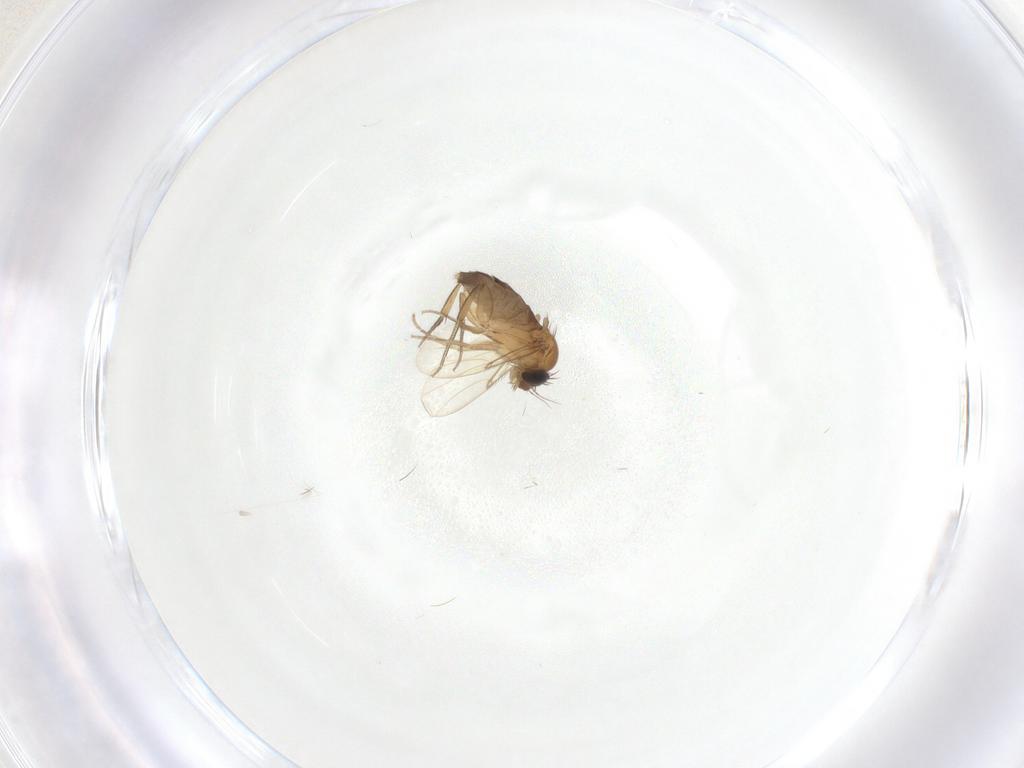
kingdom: Animalia
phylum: Arthropoda
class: Insecta
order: Diptera
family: Phoridae
